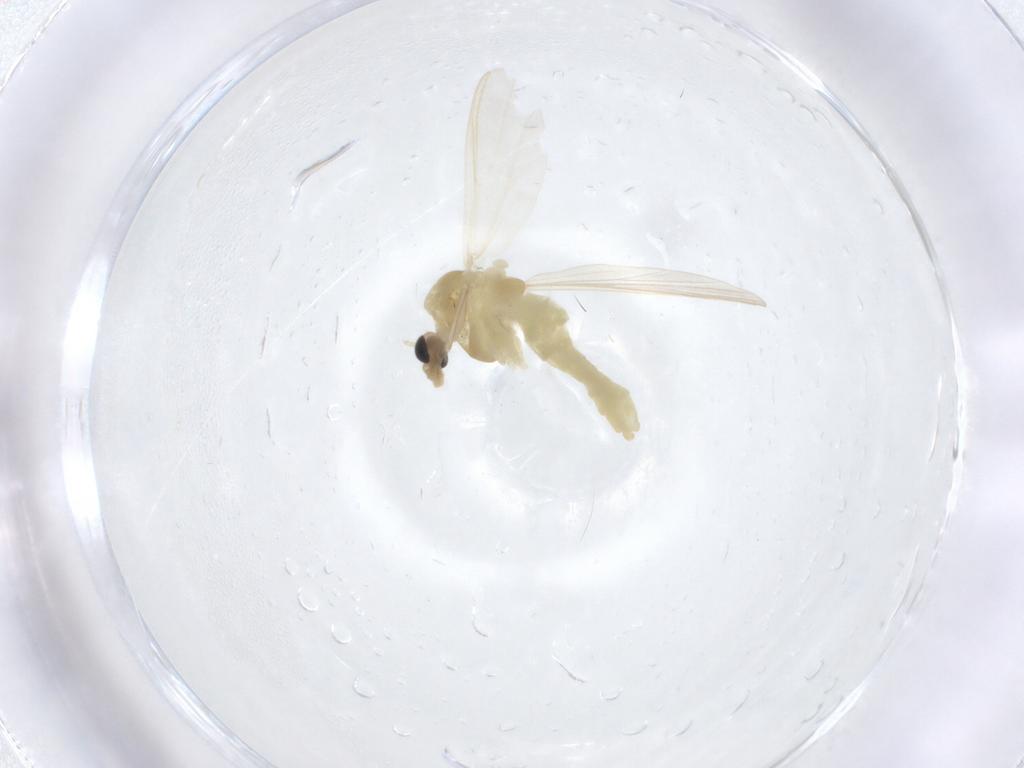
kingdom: Animalia
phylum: Arthropoda
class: Insecta
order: Diptera
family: Chironomidae
